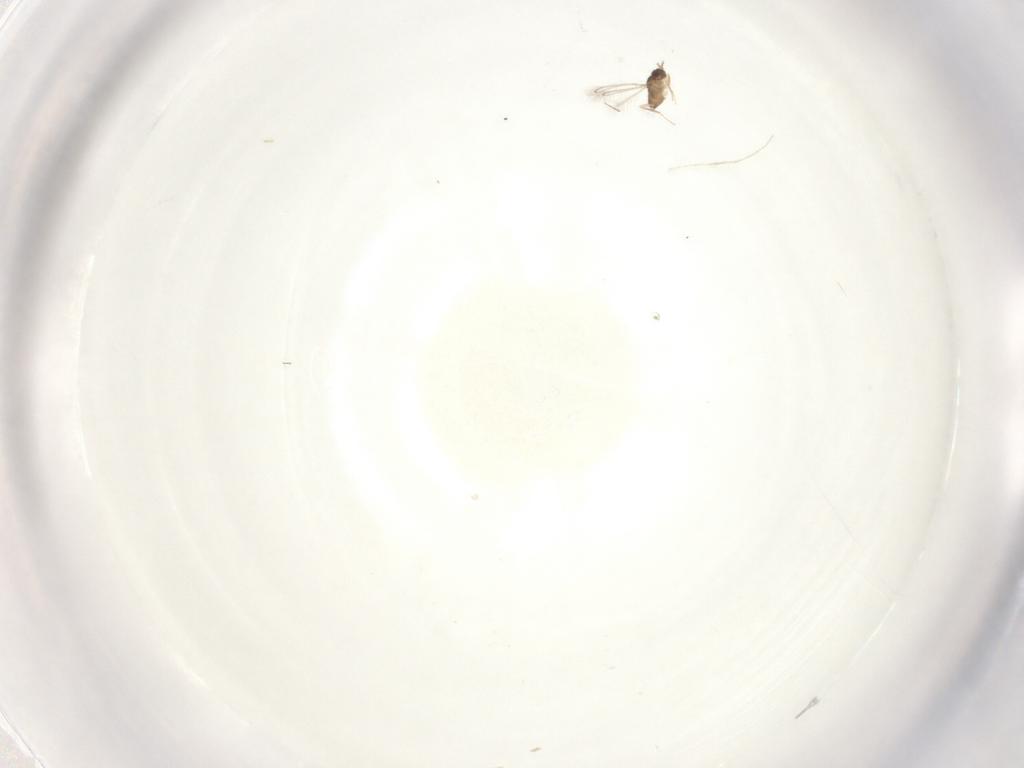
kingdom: Animalia
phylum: Arthropoda
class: Insecta
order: Hymenoptera
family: Mymaridae
